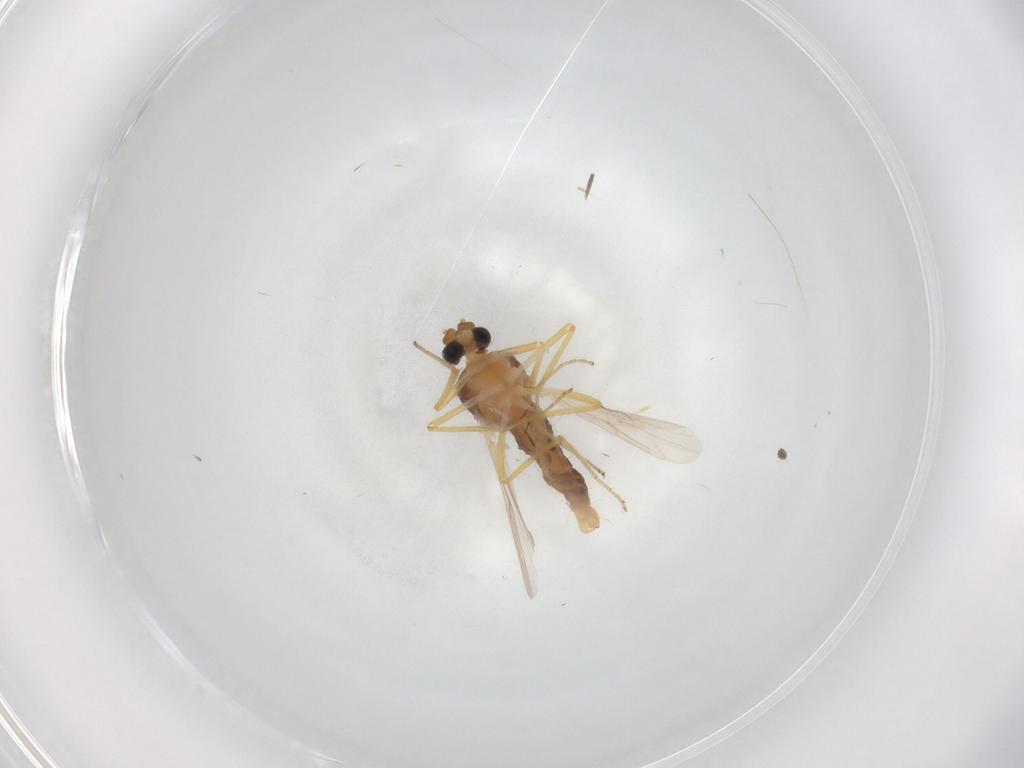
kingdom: Animalia
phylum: Arthropoda
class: Insecta
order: Diptera
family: Ceratopogonidae
